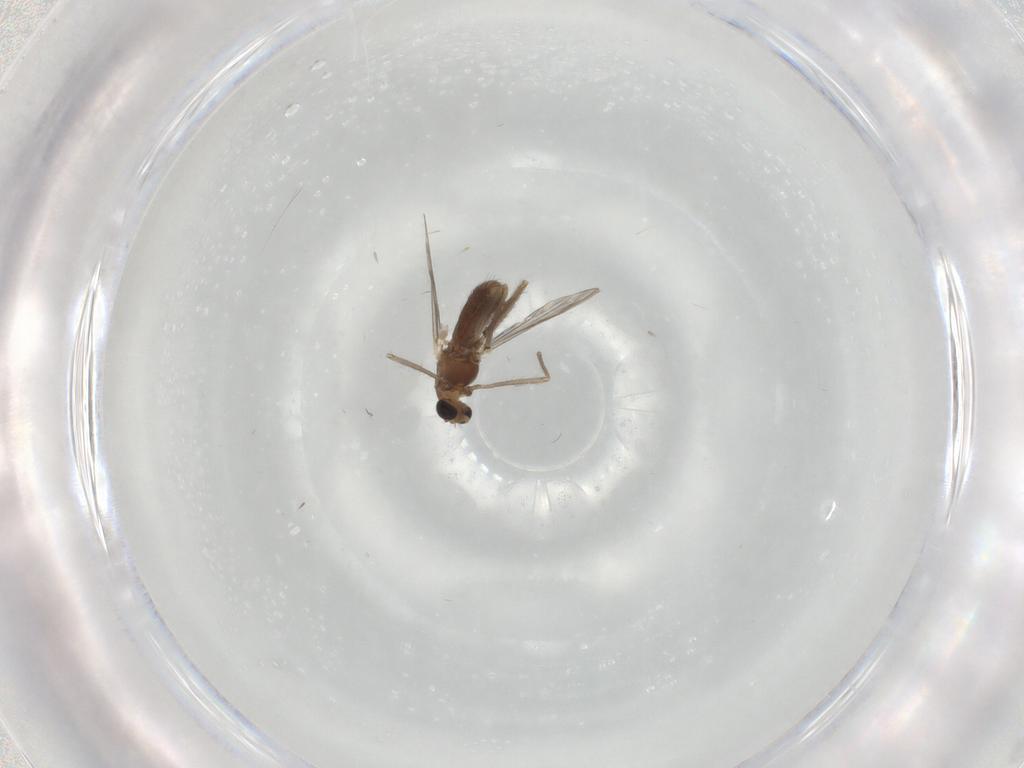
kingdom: Animalia
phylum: Arthropoda
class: Insecta
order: Diptera
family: Chironomidae
